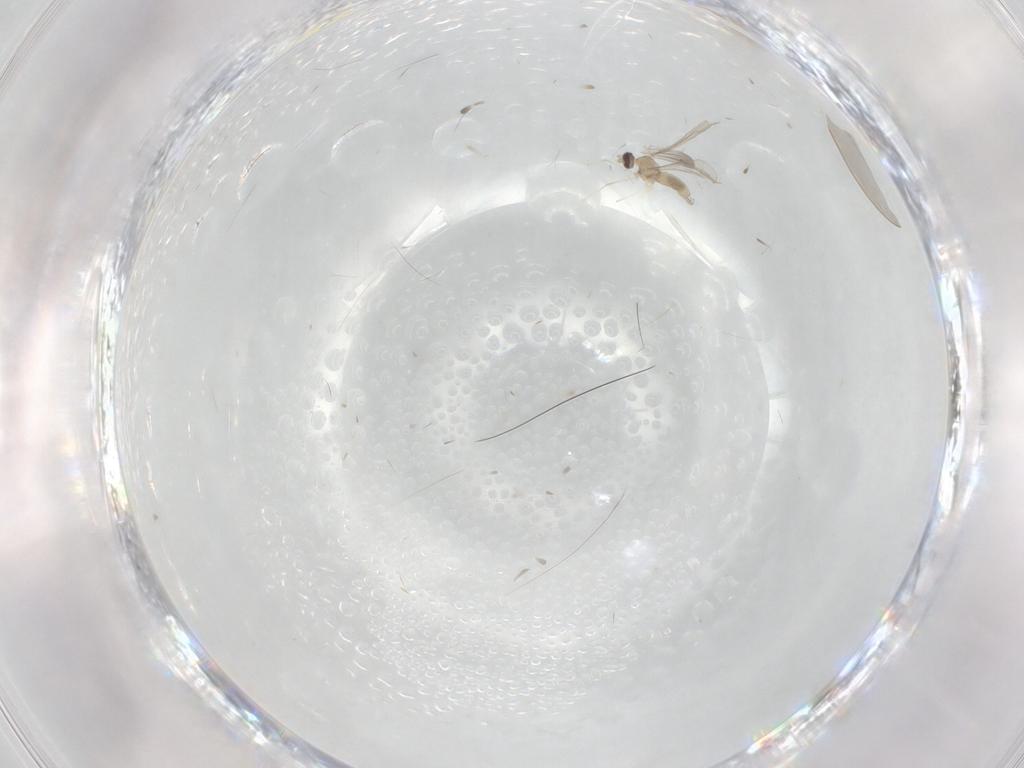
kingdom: Animalia
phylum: Arthropoda
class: Insecta
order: Diptera
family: Cecidomyiidae
